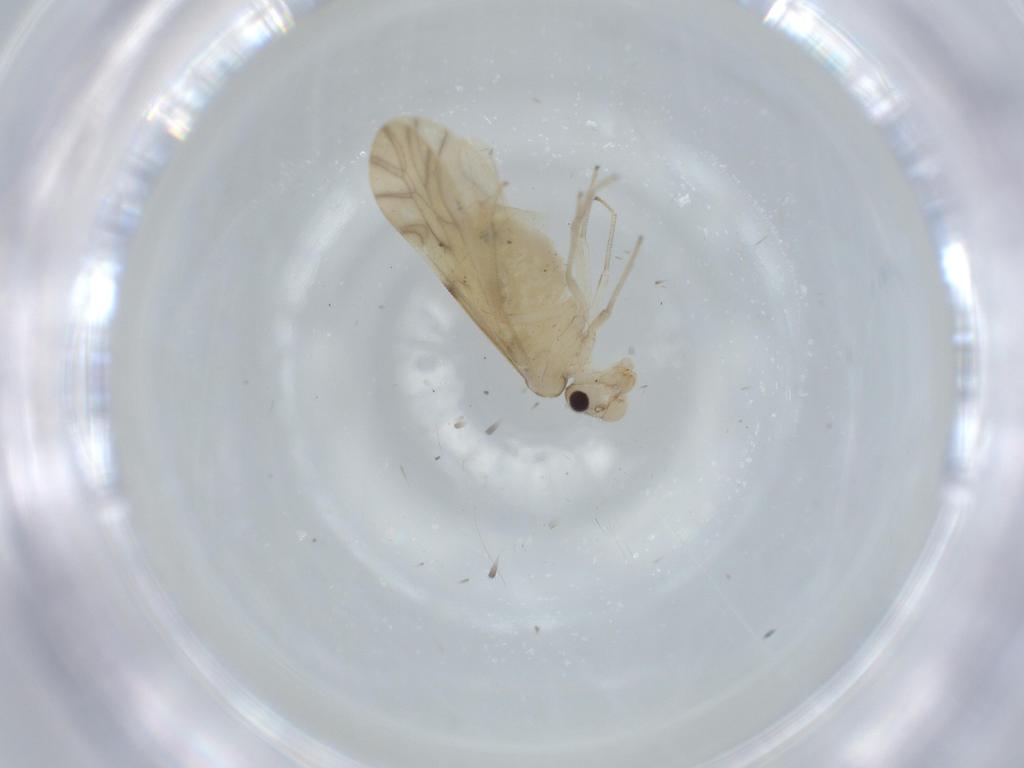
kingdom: Animalia
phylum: Arthropoda
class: Insecta
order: Psocodea
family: Caeciliusidae
